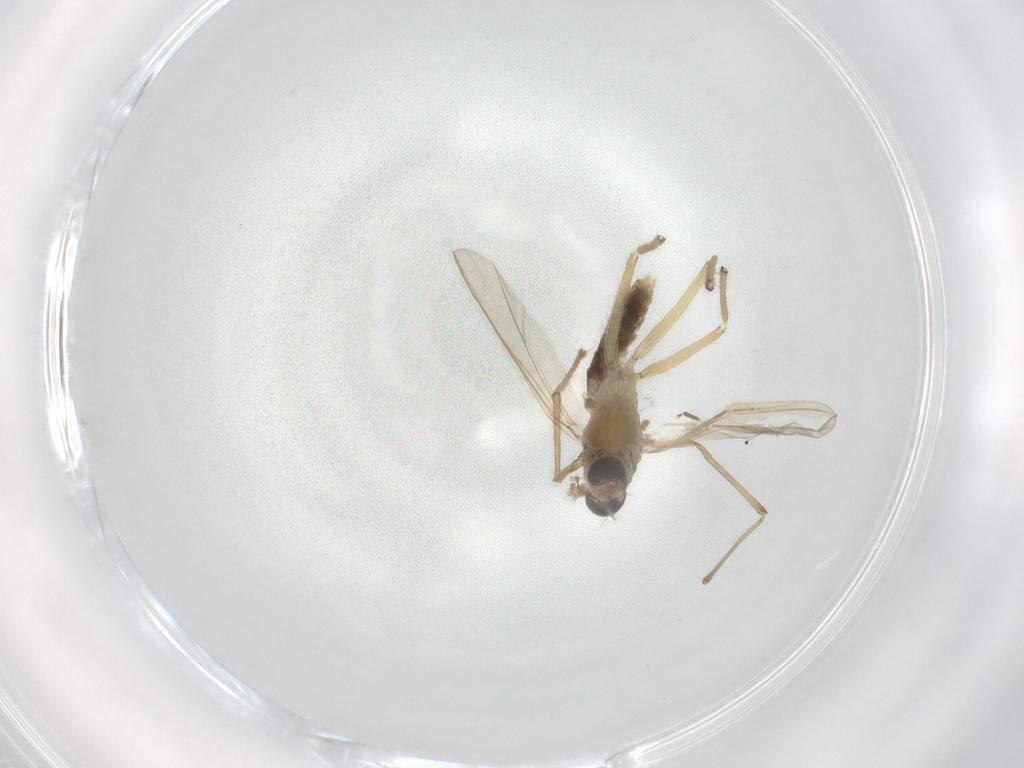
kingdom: Animalia
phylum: Arthropoda
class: Insecta
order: Diptera
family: Chironomidae
